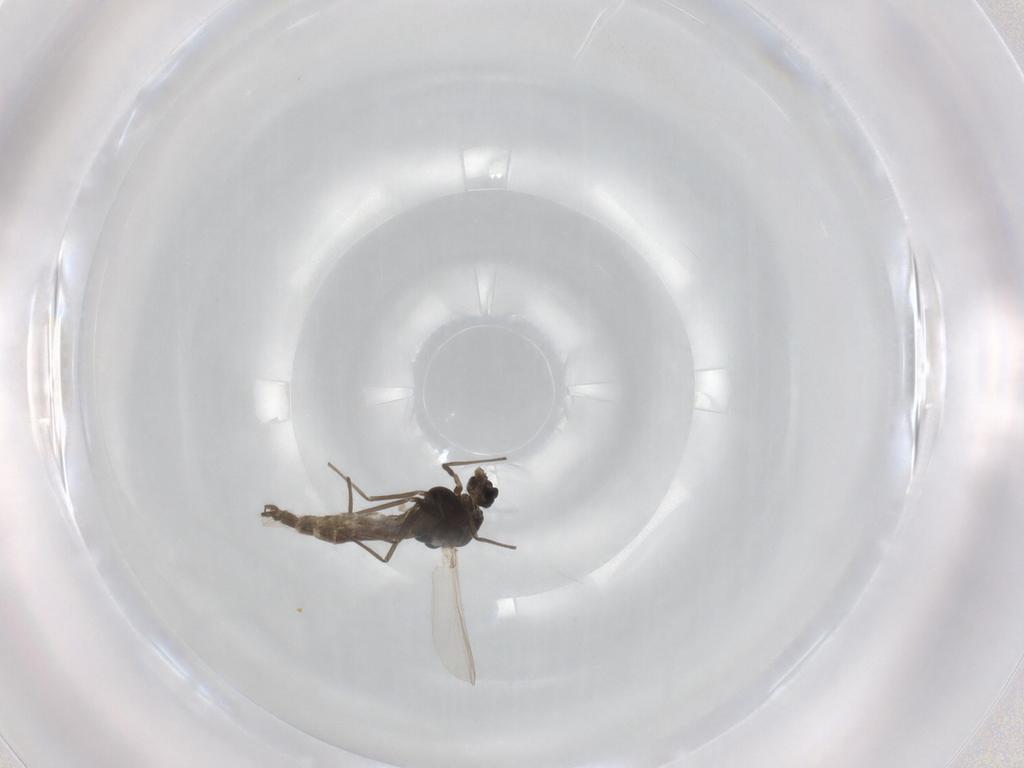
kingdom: Animalia
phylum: Arthropoda
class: Insecta
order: Diptera
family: Chironomidae
